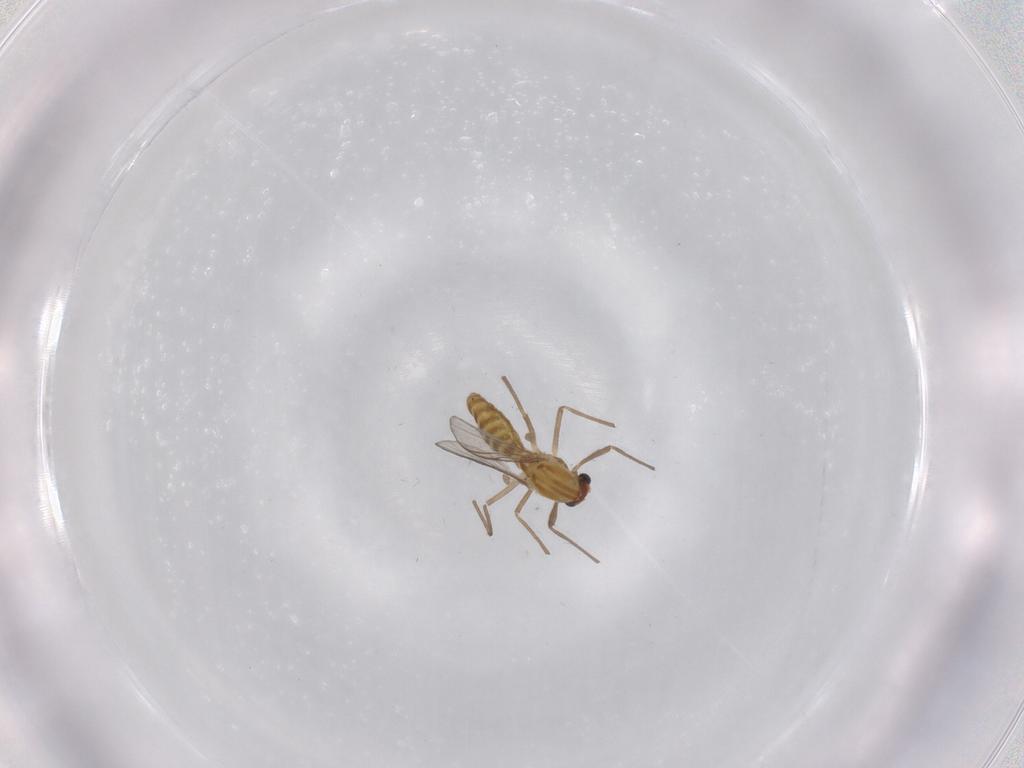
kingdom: Animalia
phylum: Arthropoda
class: Insecta
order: Diptera
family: Chironomidae
